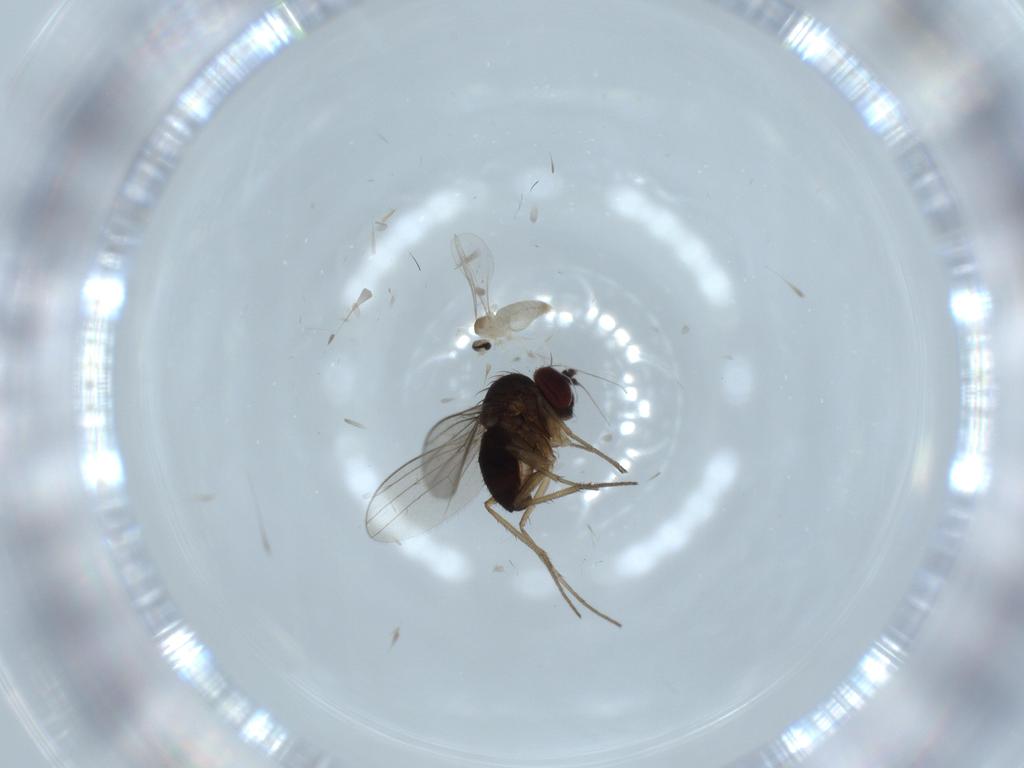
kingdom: Animalia
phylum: Arthropoda
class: Insecta
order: Diptera
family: Dolichopodidae
